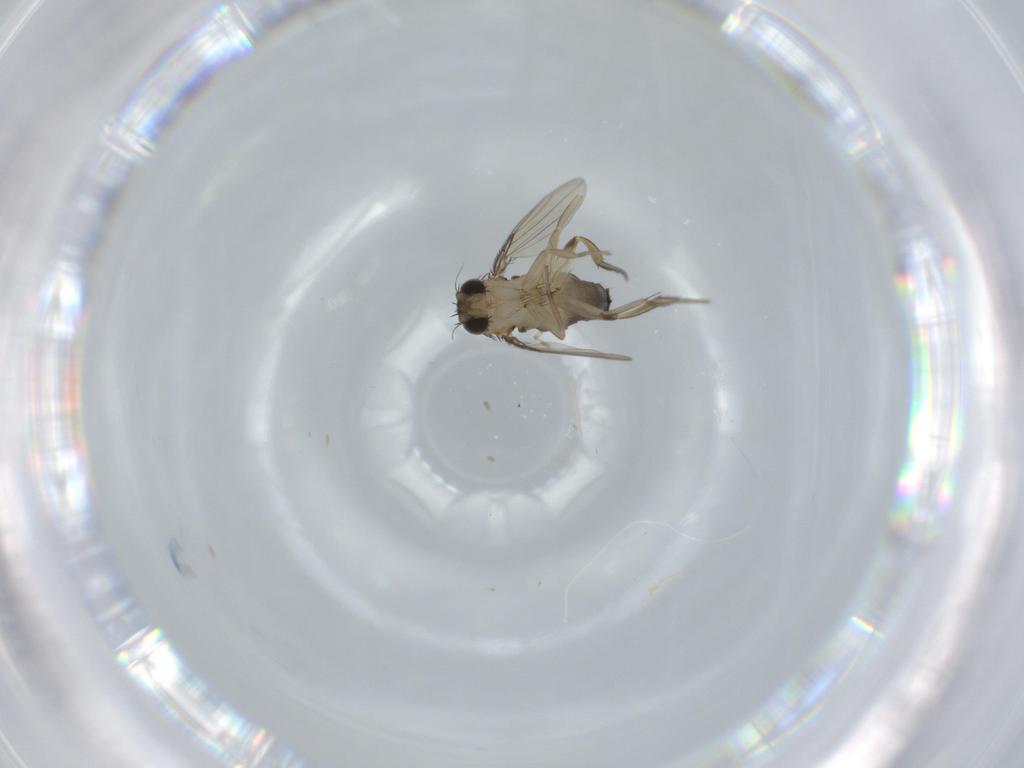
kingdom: Animalia
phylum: Arthropoda
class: Insecta
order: Diptera
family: Phoridae
